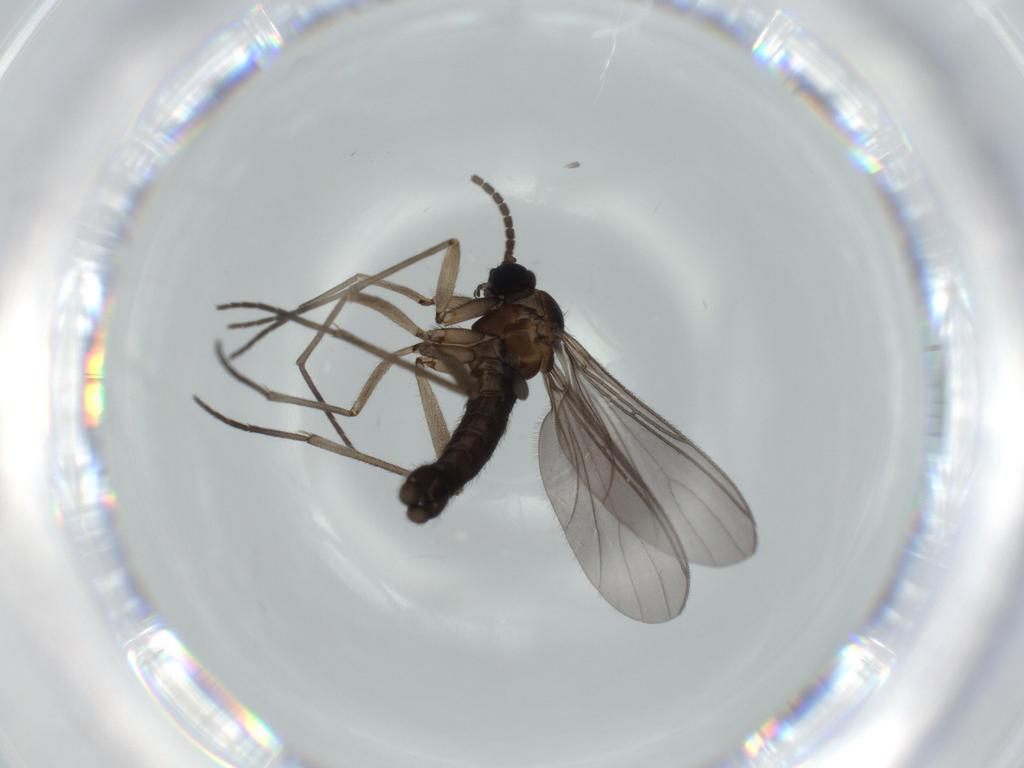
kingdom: Animalia
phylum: Arthropoda
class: Insecta
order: Diptera
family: Sciaridae
